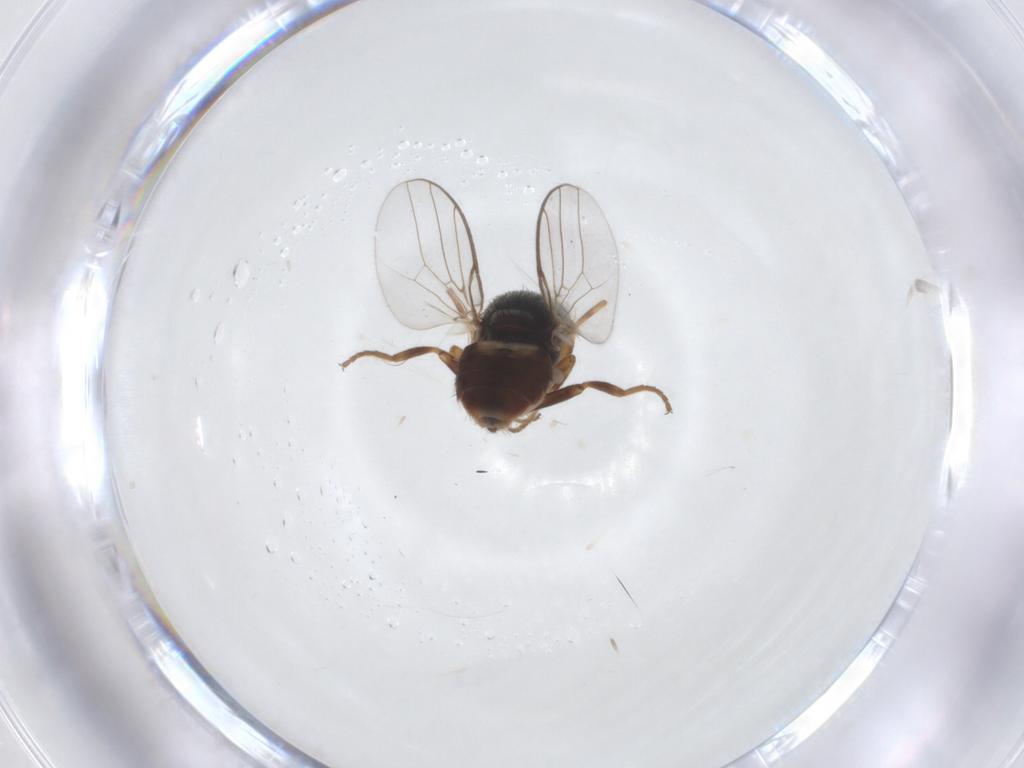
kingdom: Animalia
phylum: Arthropoda
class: Insecta
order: Diptera
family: Chloropidae
